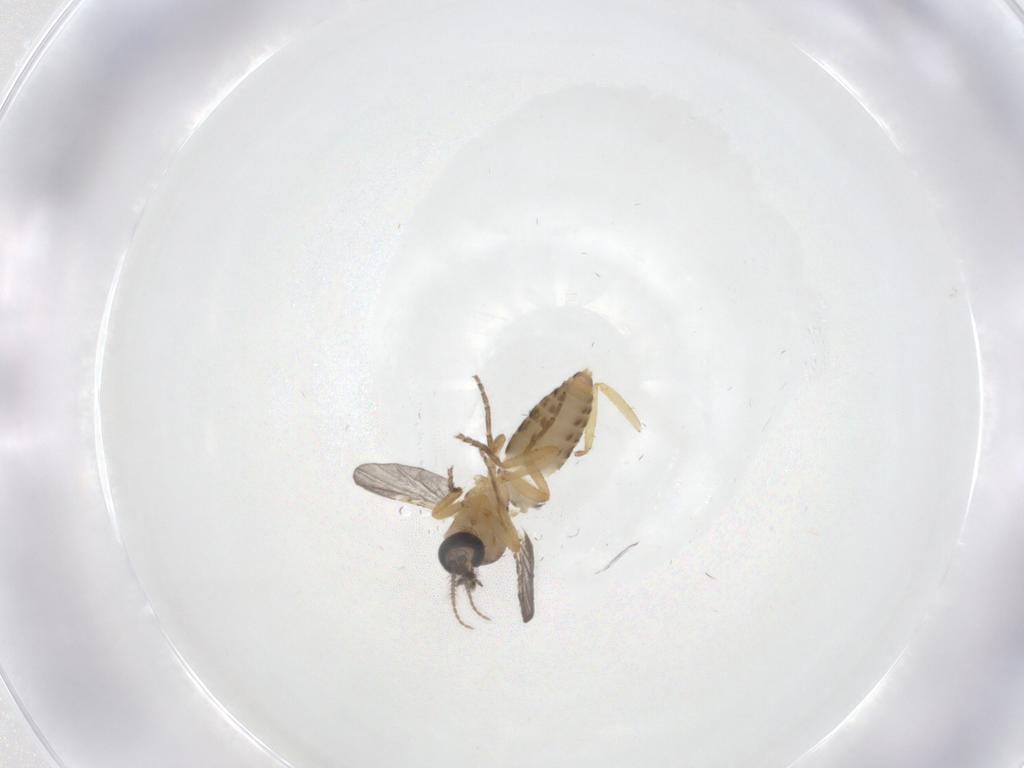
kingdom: Animalia
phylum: Arthropoda
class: Insecta
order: Diptera
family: Ceratopogonidae
